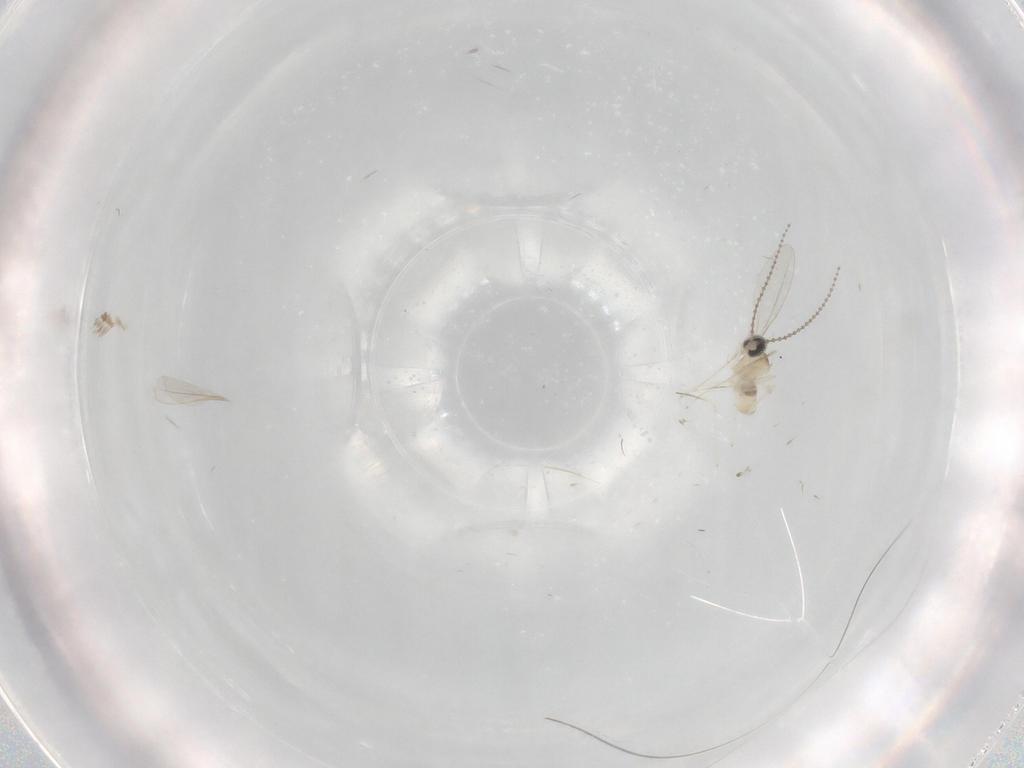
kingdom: Animalia
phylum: Arthropoda
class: Insecta
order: Diptera
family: Cecidomyiidae
